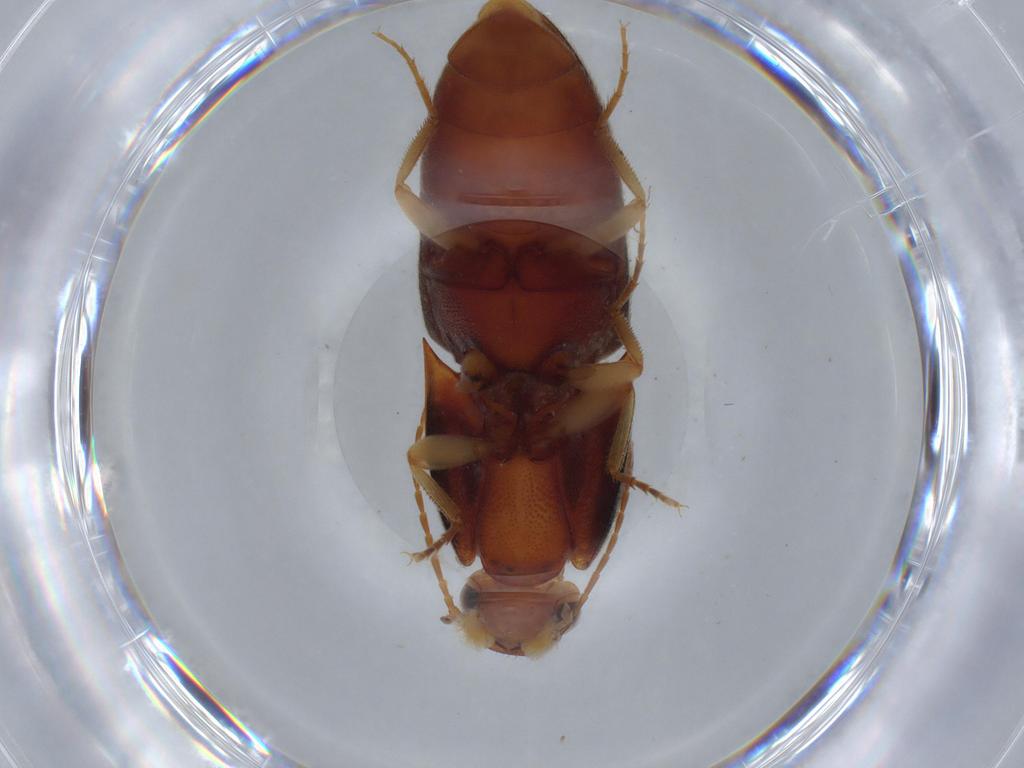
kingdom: Animalia
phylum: Arthropoda
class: Insecta
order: Coleoptera
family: Elateridae
